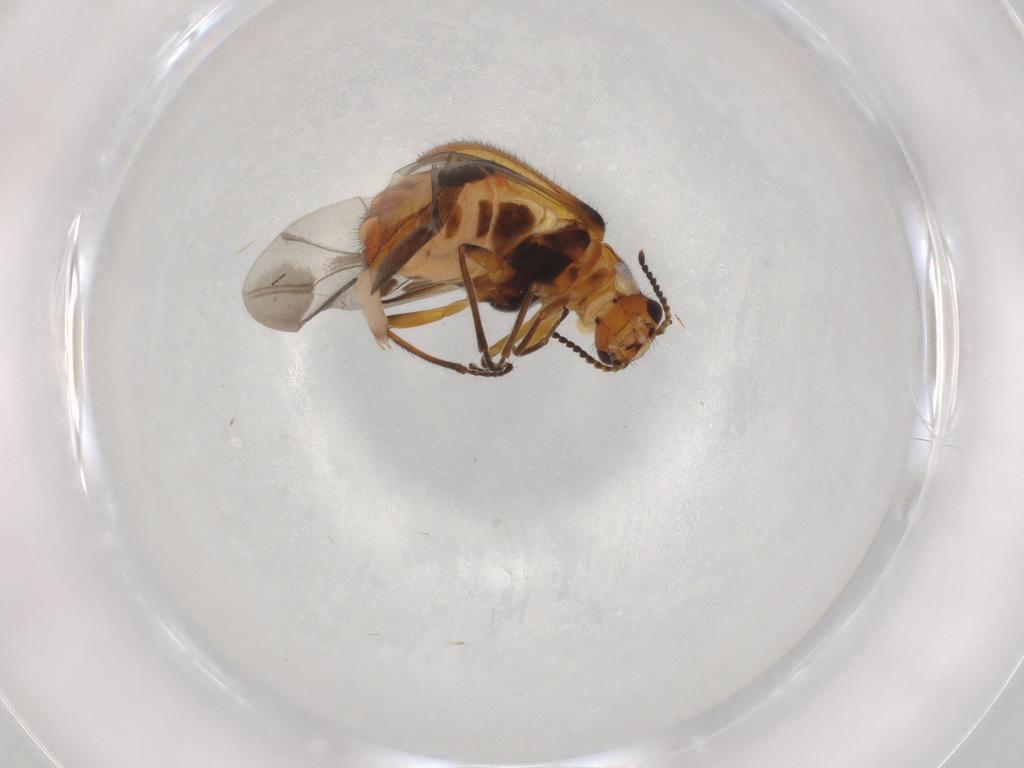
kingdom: Animalia
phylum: Arthropoda
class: Insecta
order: Coleoptera
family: Melyridae
